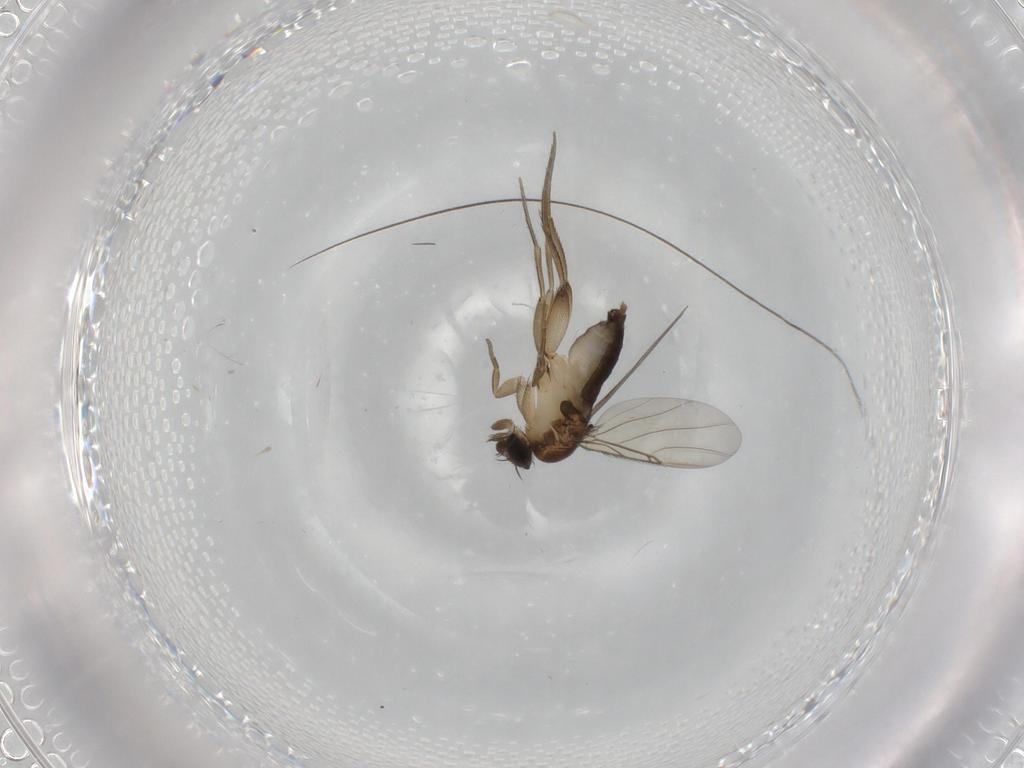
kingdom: Animalia
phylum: Arthropoda
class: Insecta
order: Diptera
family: Phoridae
